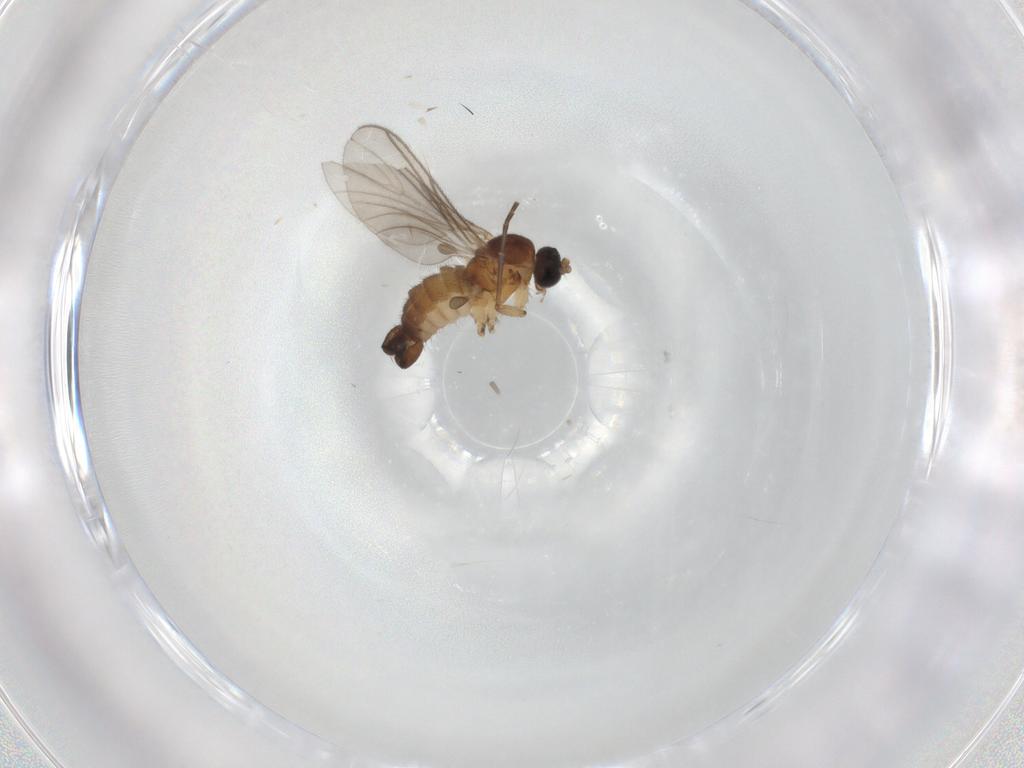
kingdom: Animalia
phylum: Arthropoda
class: Insecta
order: Diptera
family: Sciaridae
